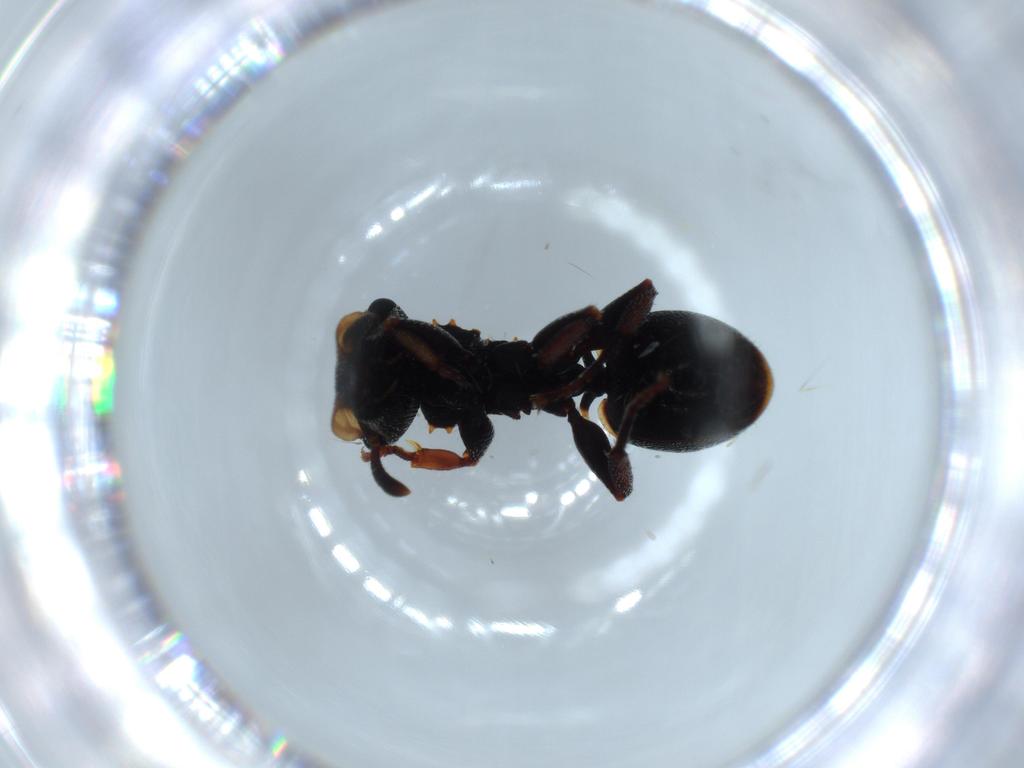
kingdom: Animalia
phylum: Arthropoda
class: Insecta
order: Hymenoptera
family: Formicidae
